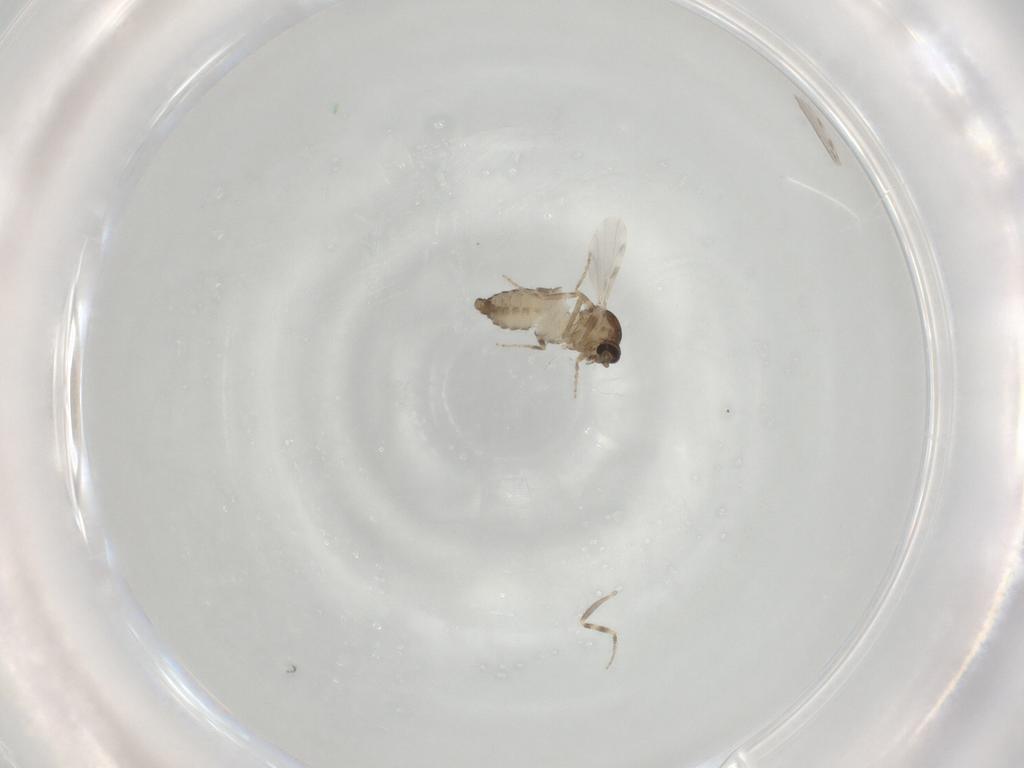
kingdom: Animalia
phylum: Arthropoda
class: Insecta
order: Diptera
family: Ceratopogonidae
